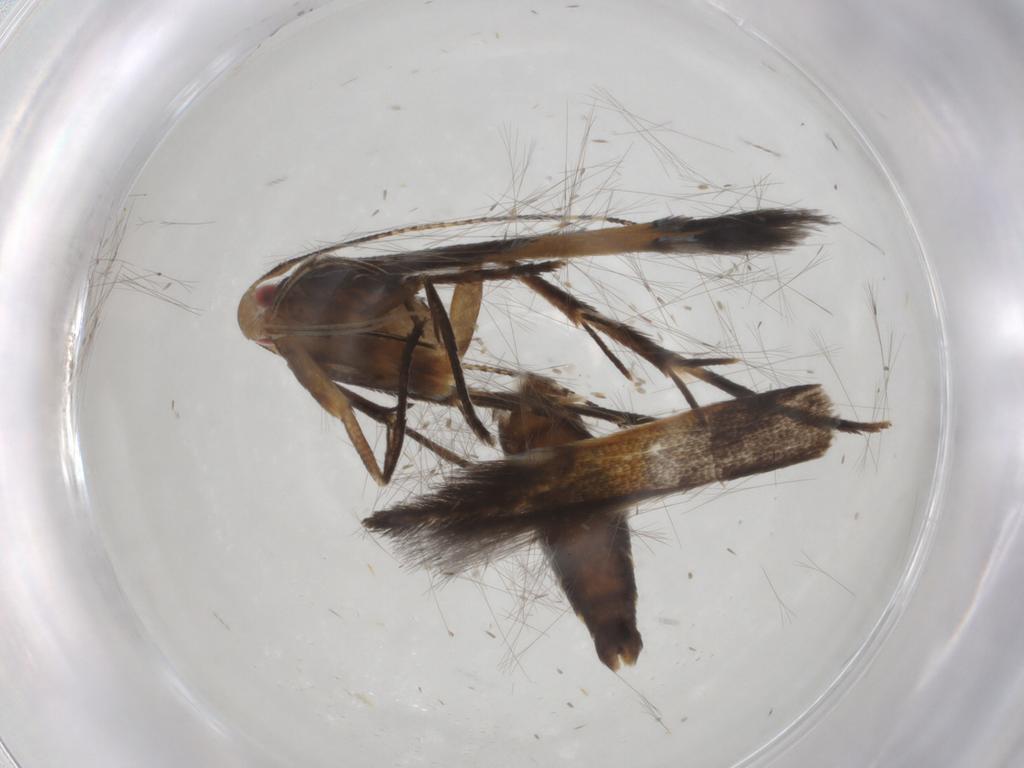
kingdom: Animalia
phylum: Arthropoda
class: Insecta
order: Lepidoptera
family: Cosmopterigidae
